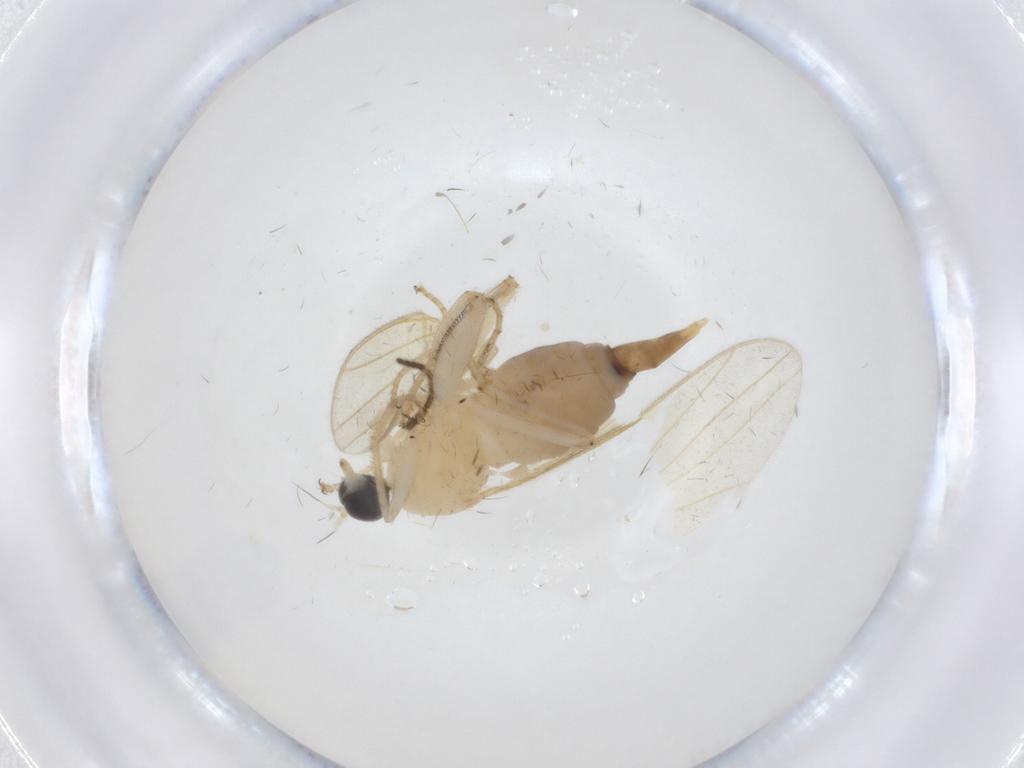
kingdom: Animalia
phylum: Arthropoda
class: Insecta
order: Diptera
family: Hybotidae
